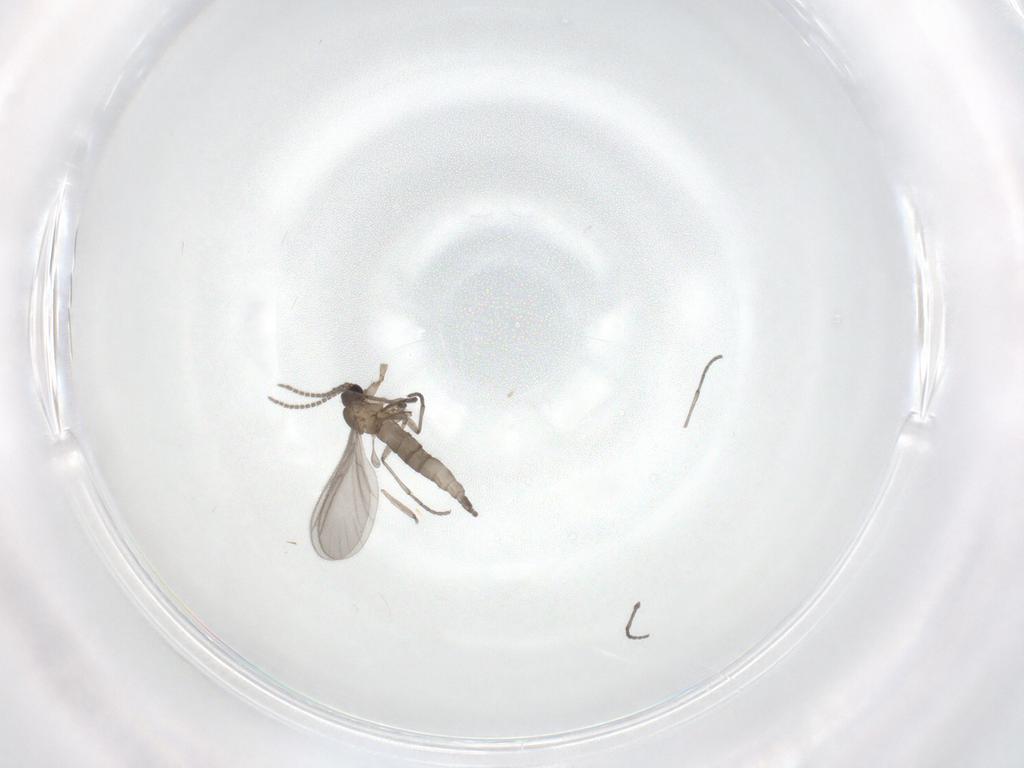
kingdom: Animalia
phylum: Arthropoda
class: Insecta
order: Diptera
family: Sciaridae
